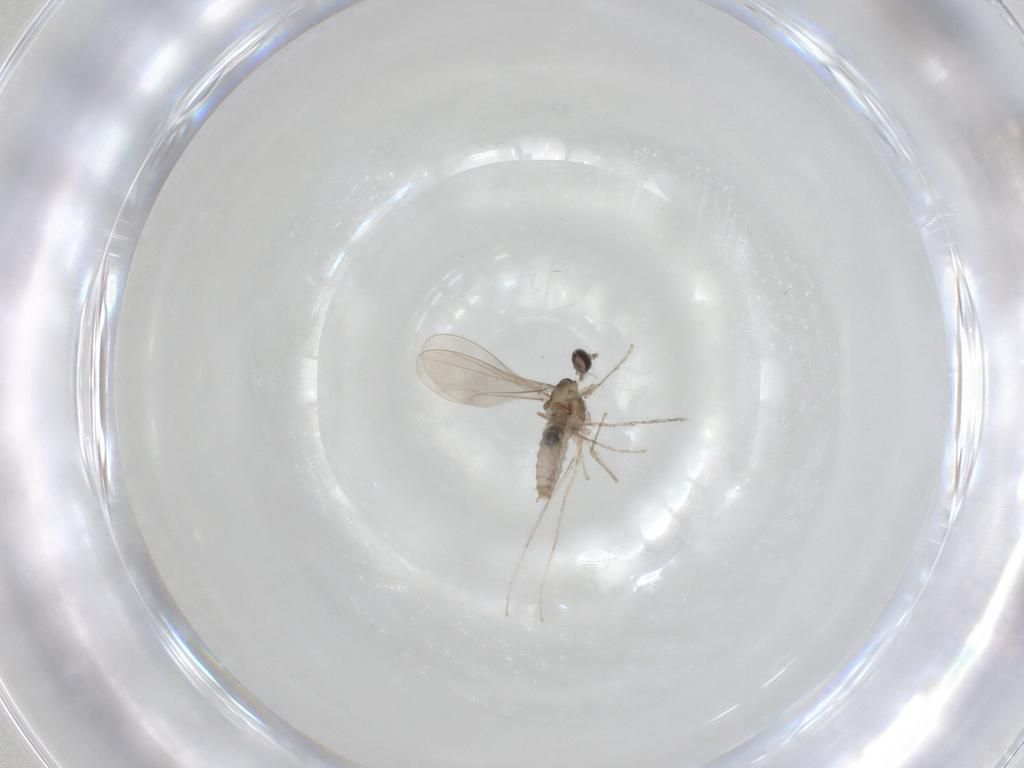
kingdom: Animalia
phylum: Arthropoda
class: Insecta
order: Diptera
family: Cecidomyiidae
